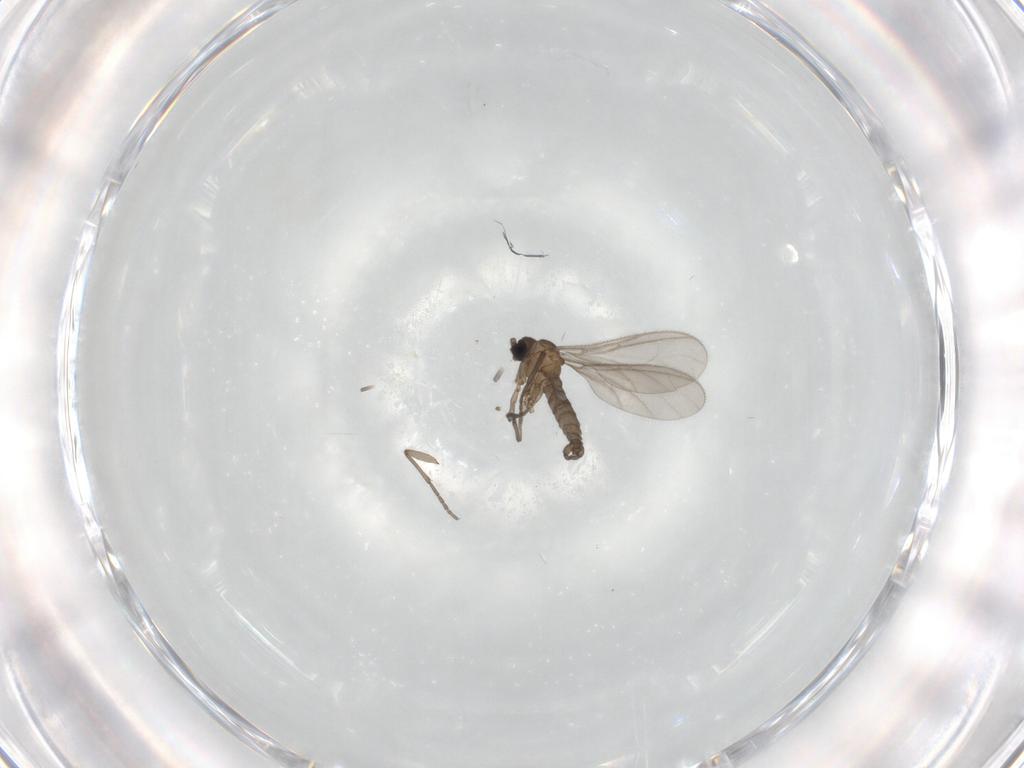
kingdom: Animalia
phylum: Arthropoda
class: Insecta
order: Diptera
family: Sciaridae
